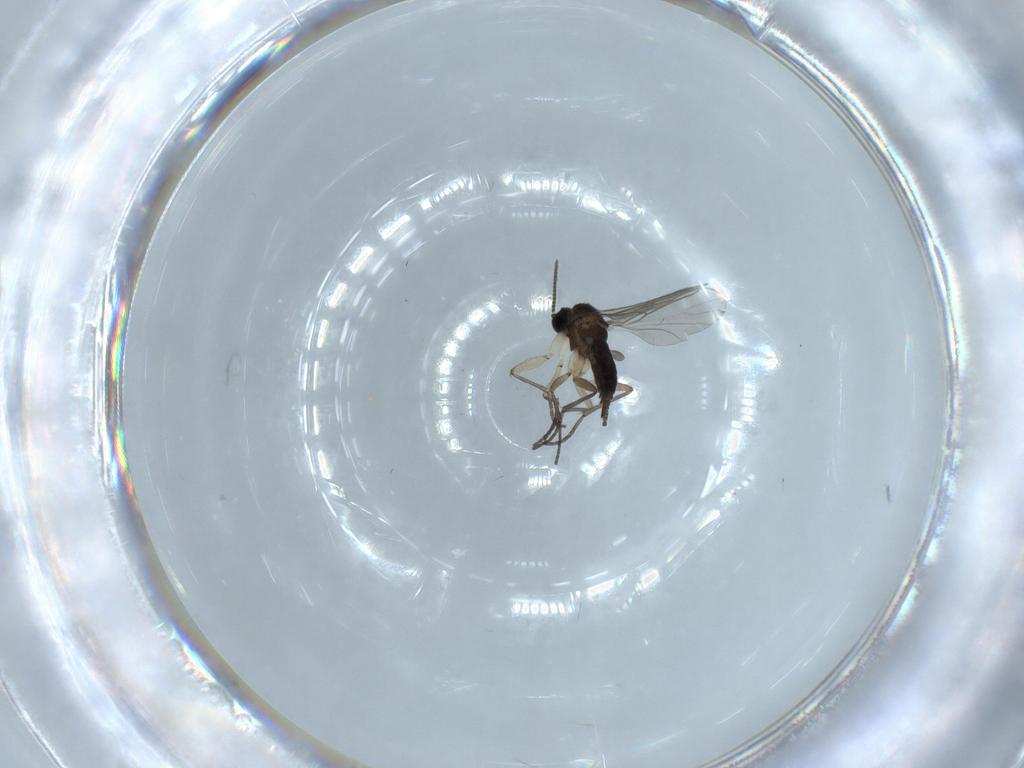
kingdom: Animalia
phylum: Arthropoda
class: Insecta
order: Diptera
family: Sciaridae
